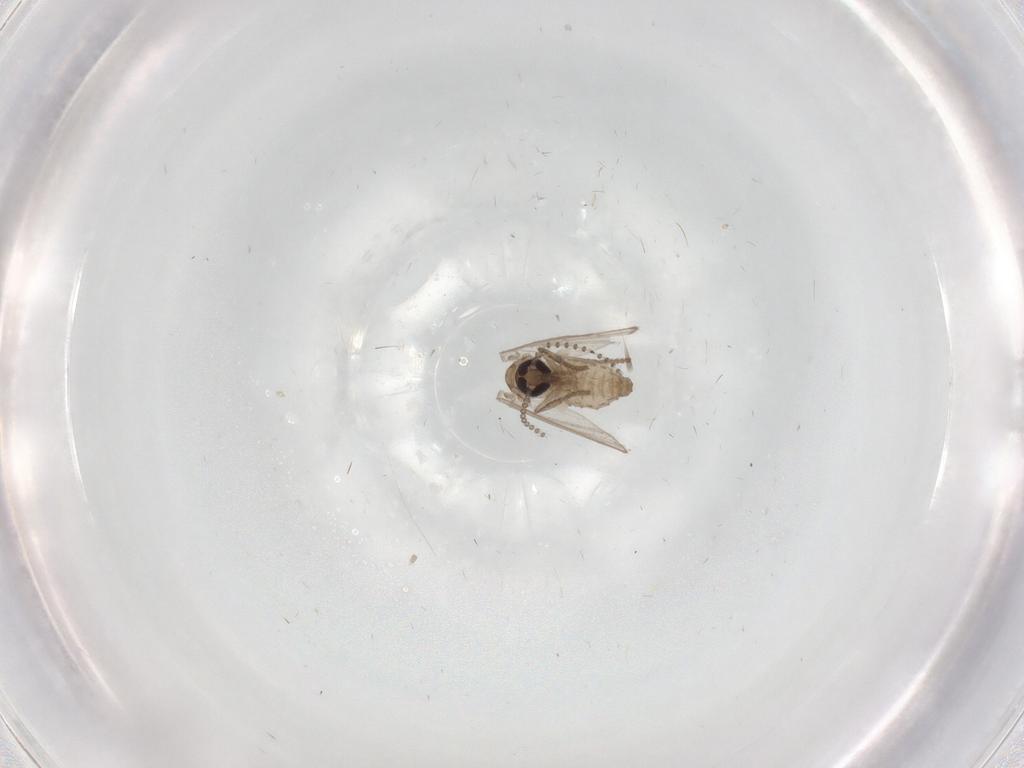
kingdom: Animalia
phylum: Arthropoda
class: Insecta
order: Diptera
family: Psychodidae
